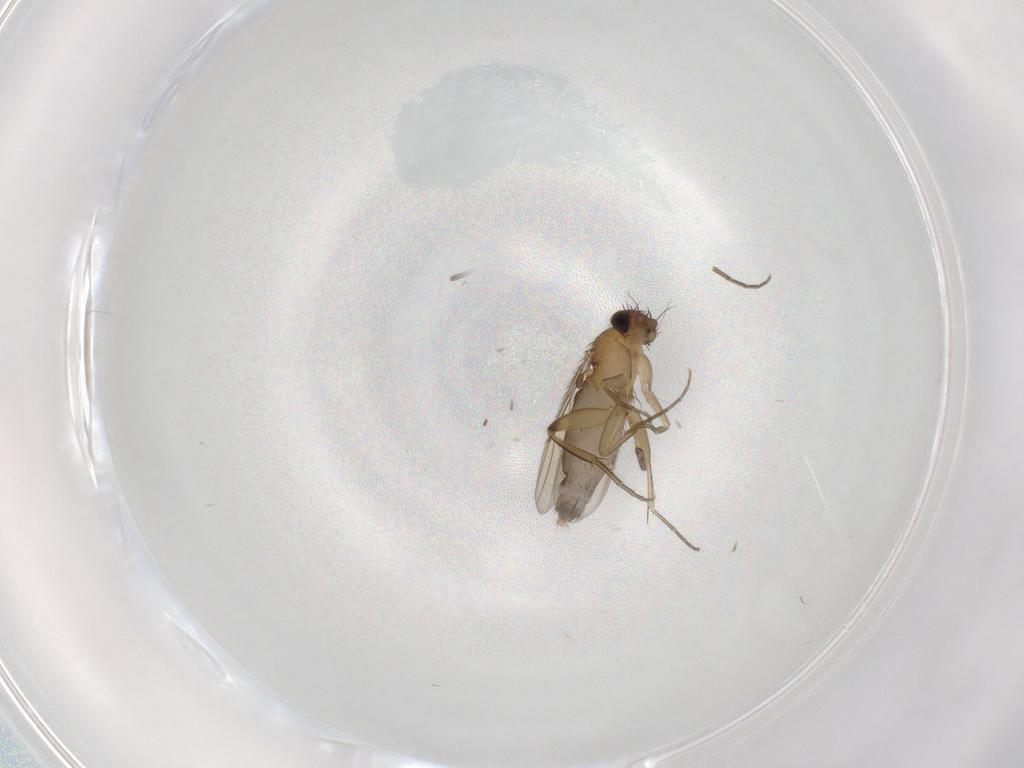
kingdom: Animalia
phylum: Arthropoda
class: Insecta
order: Diptera
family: Phoridae
